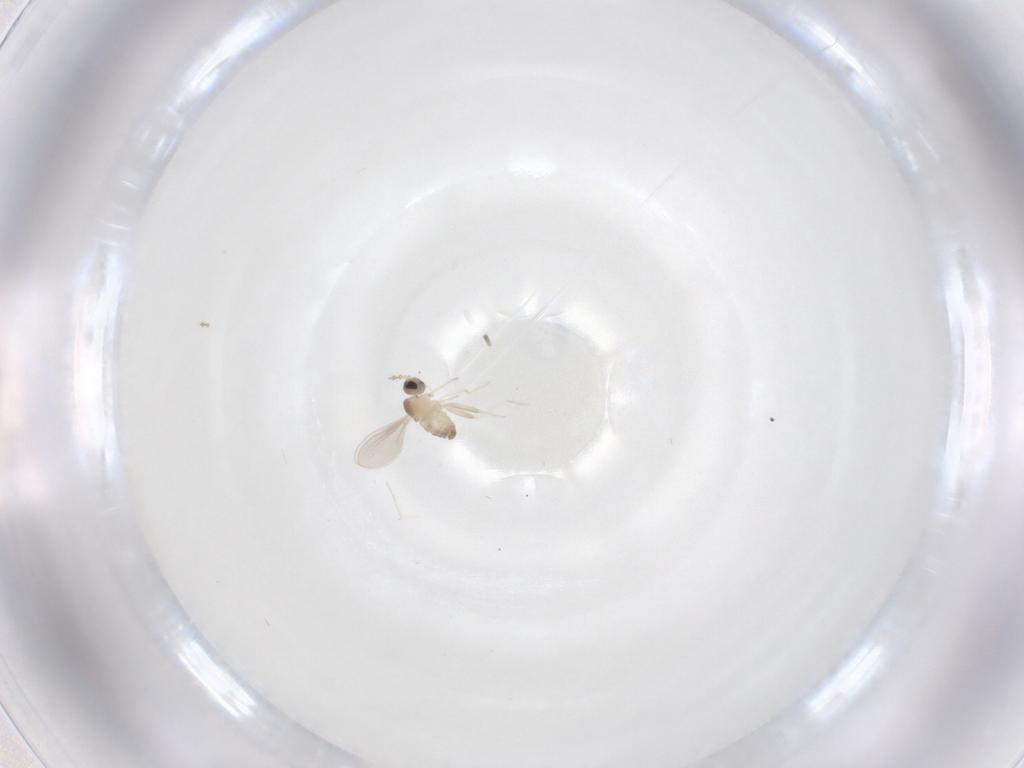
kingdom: Animalia
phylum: Arthropoda
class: Insecta
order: Diptera
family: Cecidomyiidae
